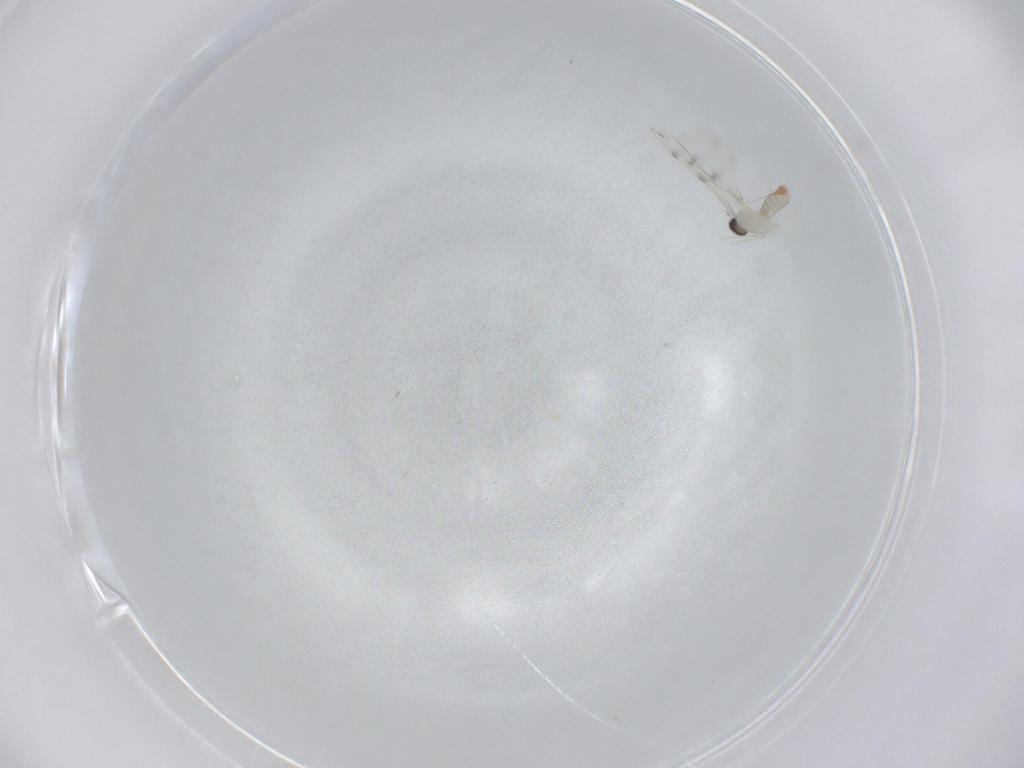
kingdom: Animalia
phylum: Arthropoda
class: Insecta
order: Diptera
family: Cecidomyiidae
